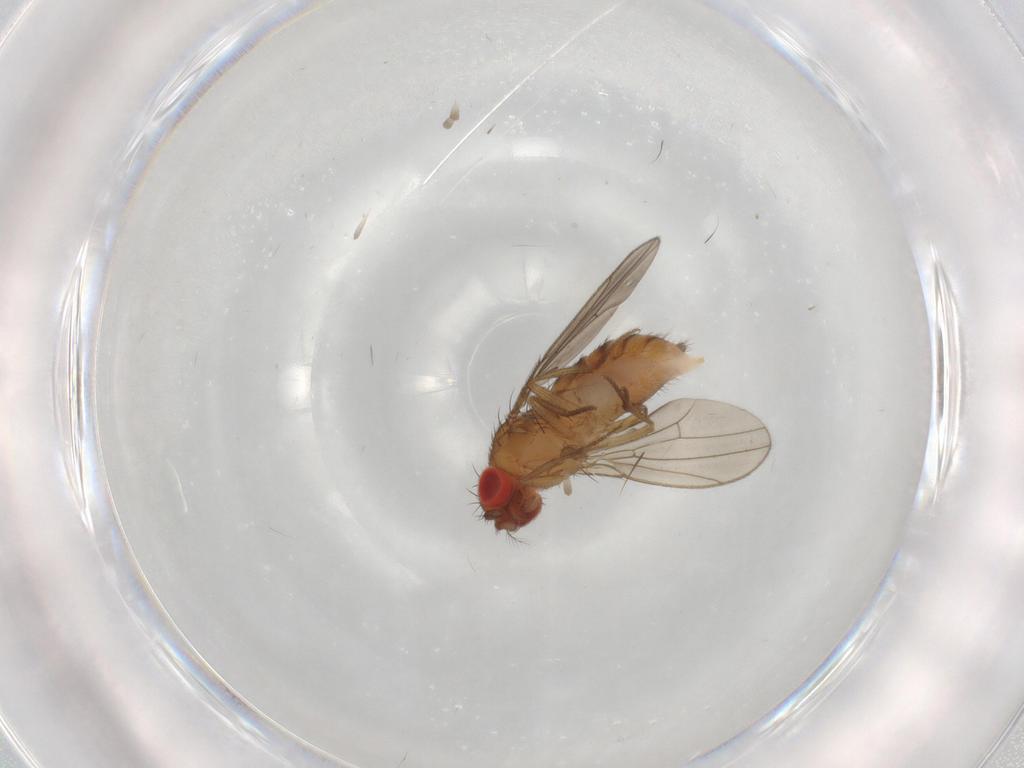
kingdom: Animalia
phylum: Arthropoda
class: Insecta
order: Diptera
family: Drosophilidae
